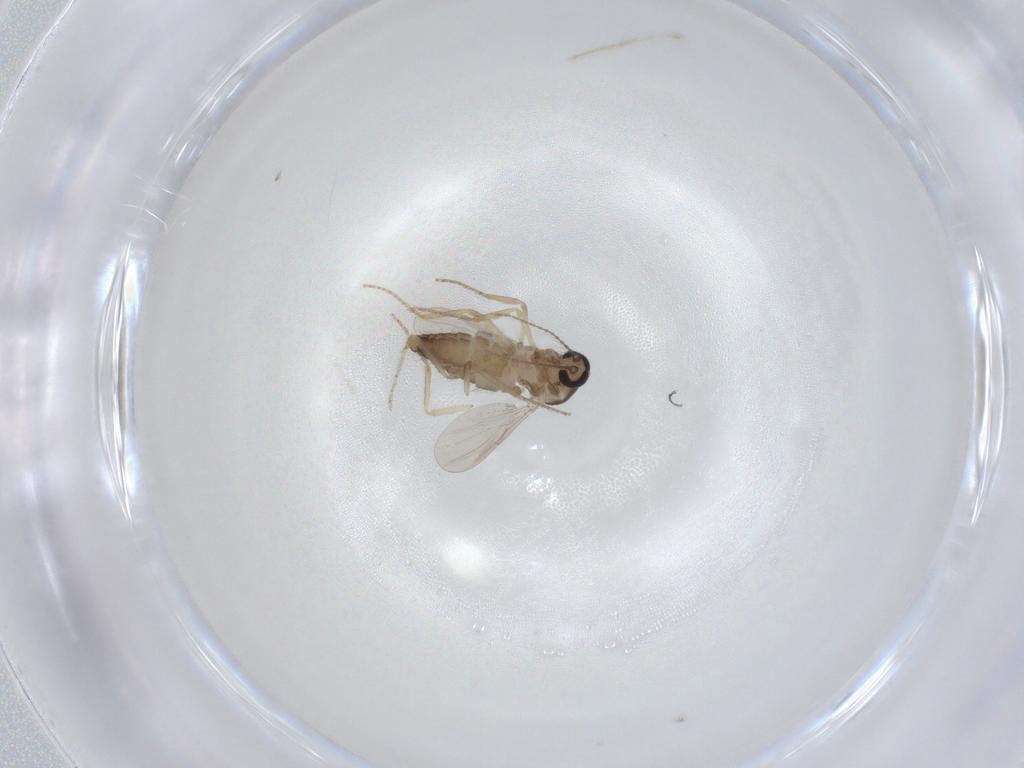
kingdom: Animalia
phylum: Arthropoda
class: Insecta
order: Diptera
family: Ceratopogonidae
